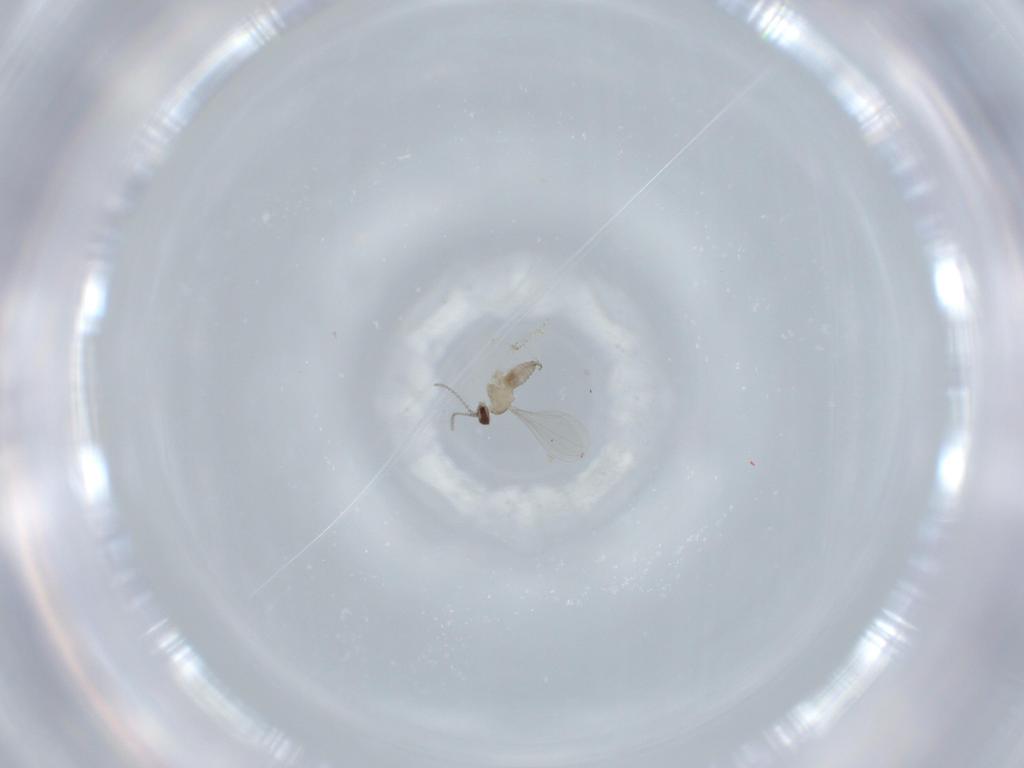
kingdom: Animalia
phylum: Arthropoda
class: Insecta
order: Diptera
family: Cecidomyiidae
